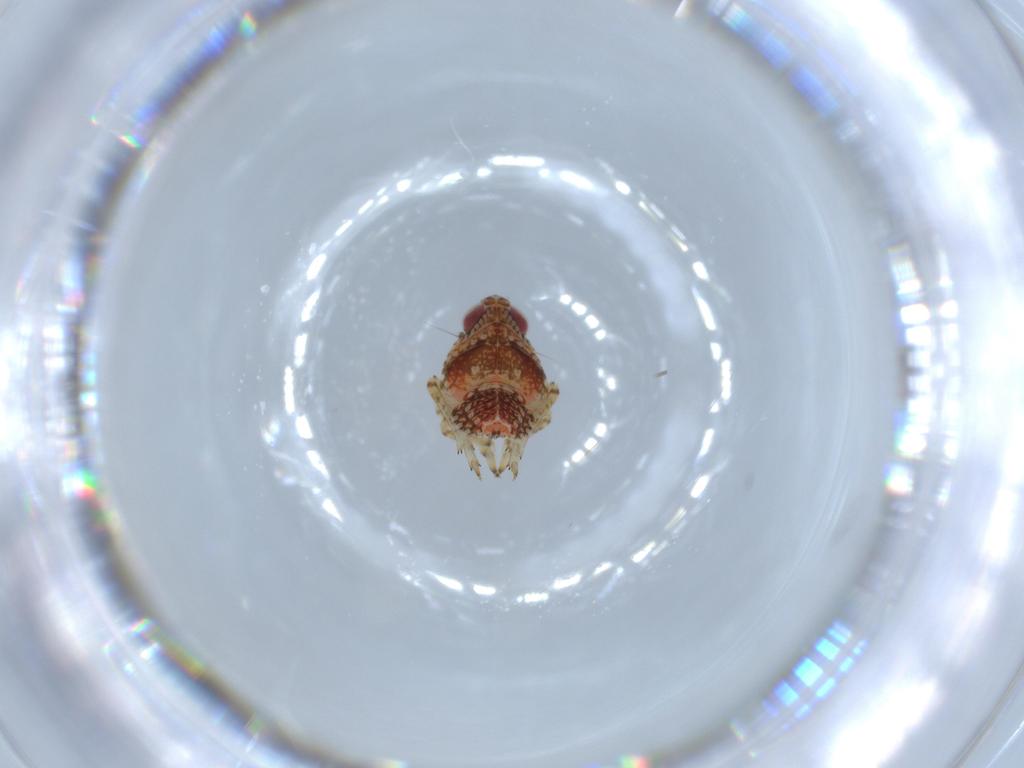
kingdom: Animalia
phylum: Arthropoda
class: Insecta
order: Hemiptera
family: Issidae
